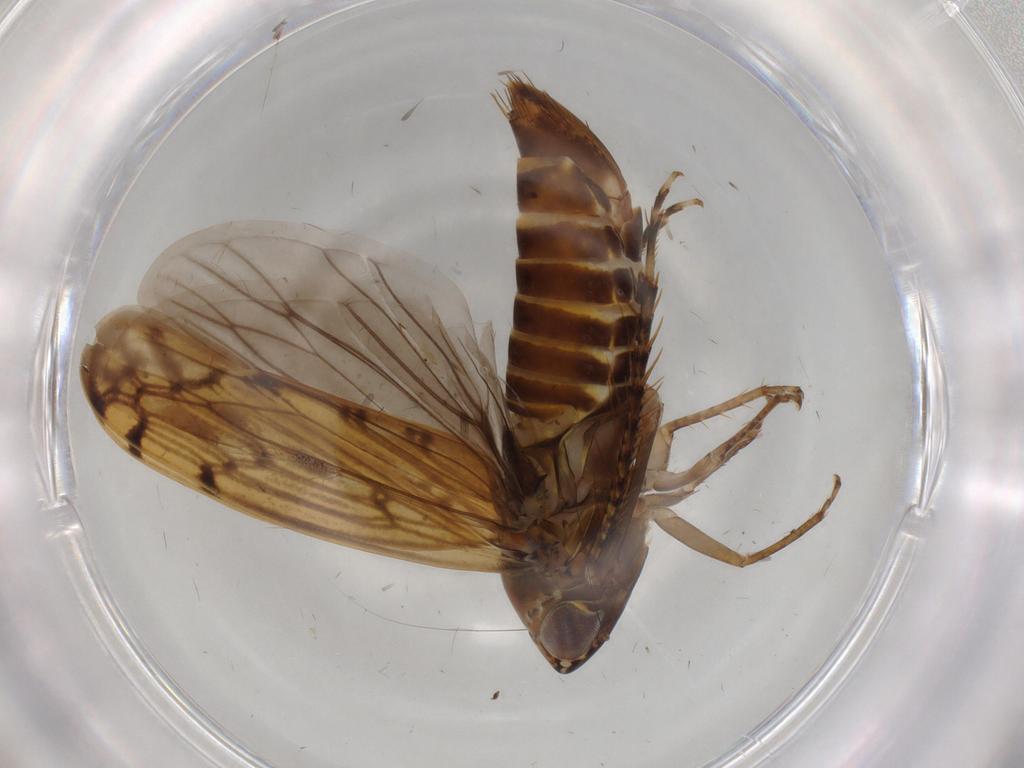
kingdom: Animalia
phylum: Arthropoda
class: Insecta
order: Hemiptera
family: Cicadellidae
